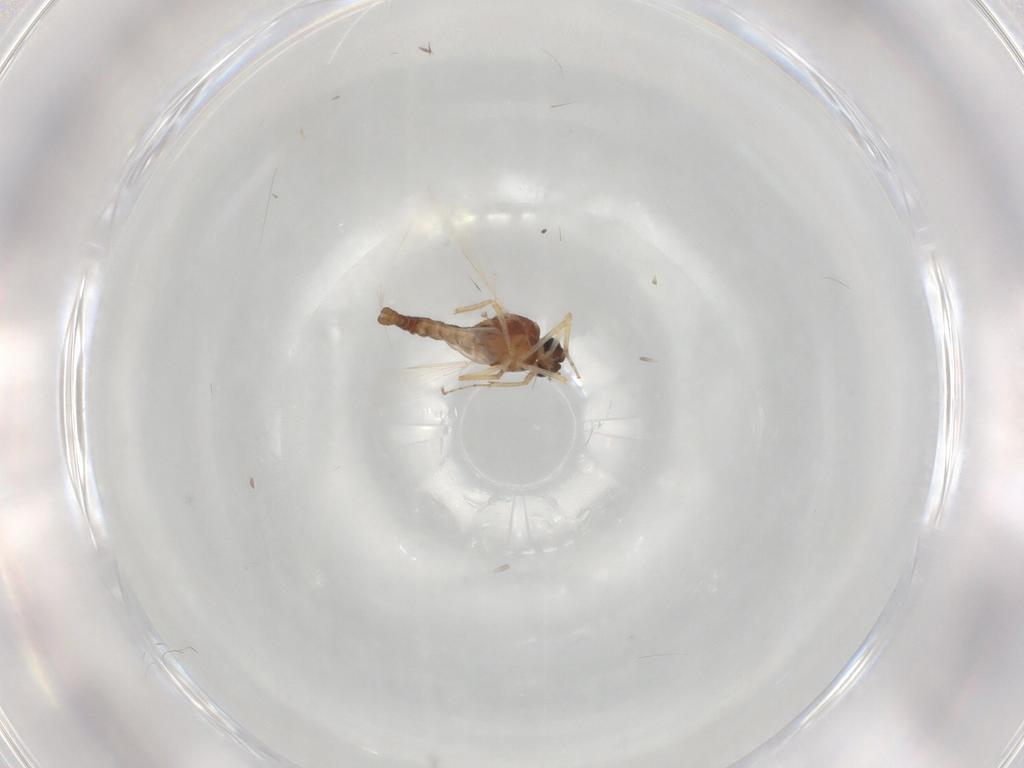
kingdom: Animalia
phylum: Arthropoda
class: Insecta
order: Diptera
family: Ceratopogonidae
